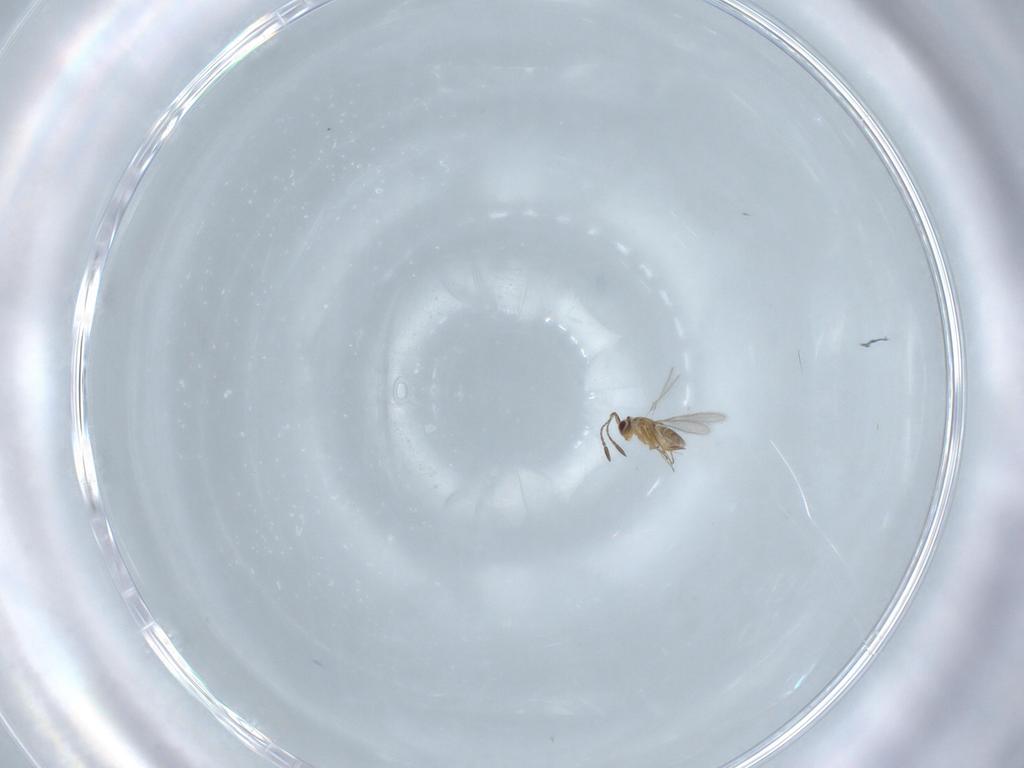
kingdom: Animalia
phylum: Arthropoda
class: Insecta
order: Hymenoptera
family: Mymaridae
